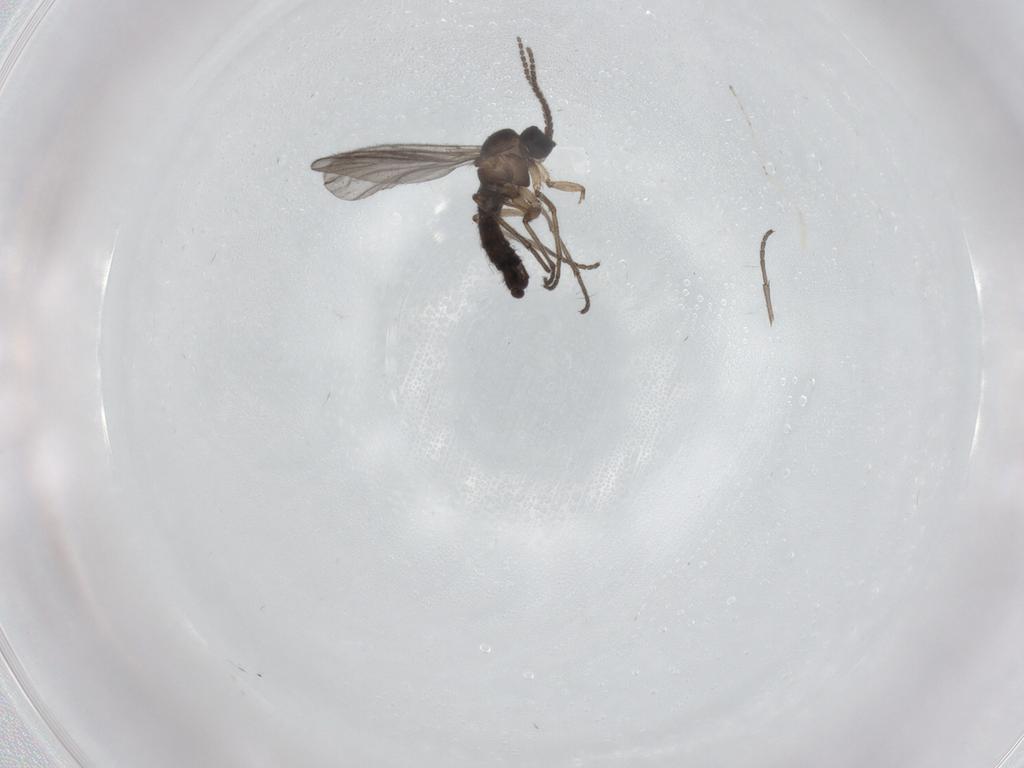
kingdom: Animalia
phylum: Arthropoda
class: Insecta
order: Diptera
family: Sciaridae
